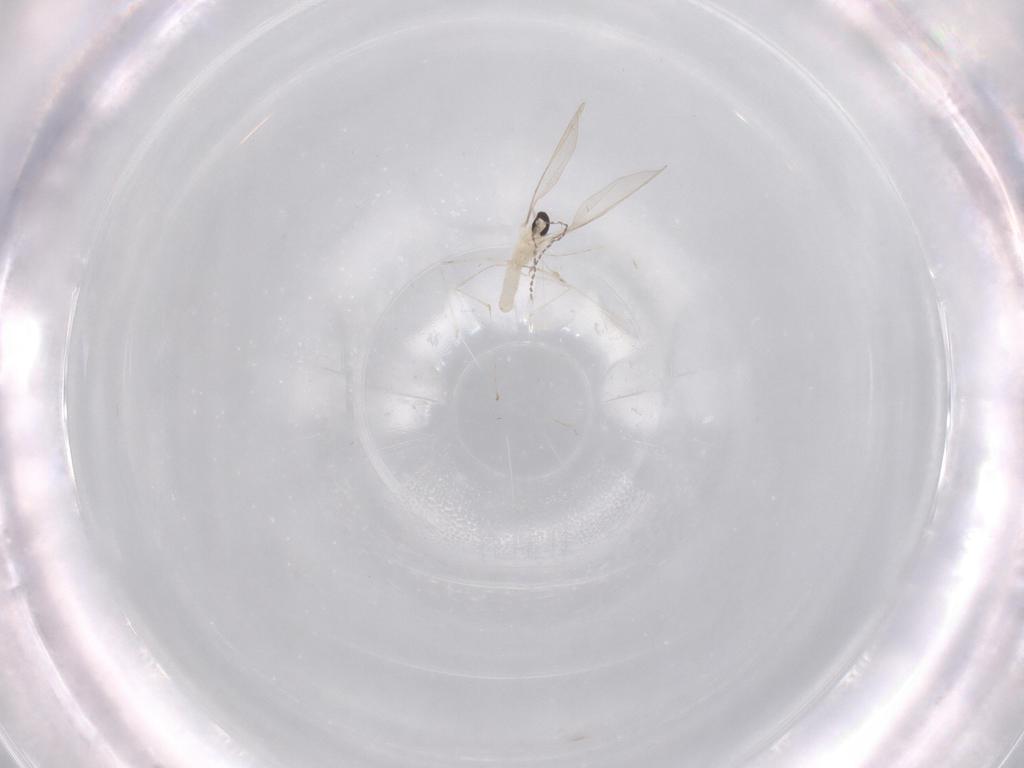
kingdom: Animalia
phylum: Arthropoda
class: Insecta
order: Diptera
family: Cecidomyiidae
